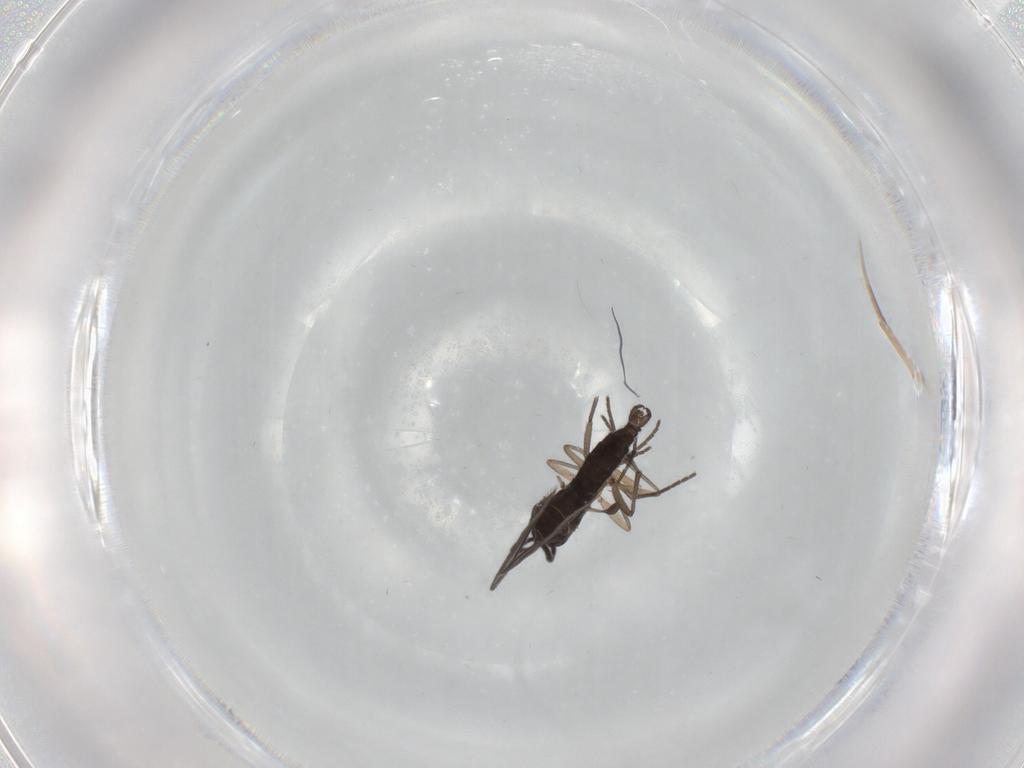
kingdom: Animalia
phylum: Arthropoda
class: Insecta
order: Diptera
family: Sciaridae
